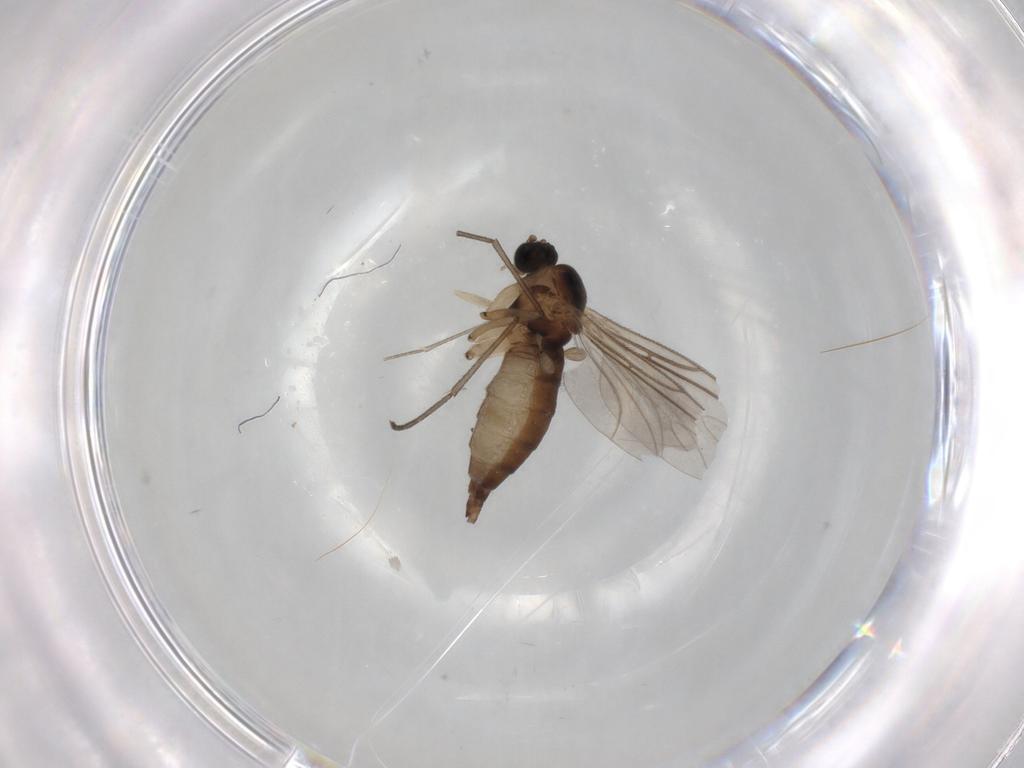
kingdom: Animalia
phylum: Arthropoda
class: Insecta
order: Diptera
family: Sciaridae
